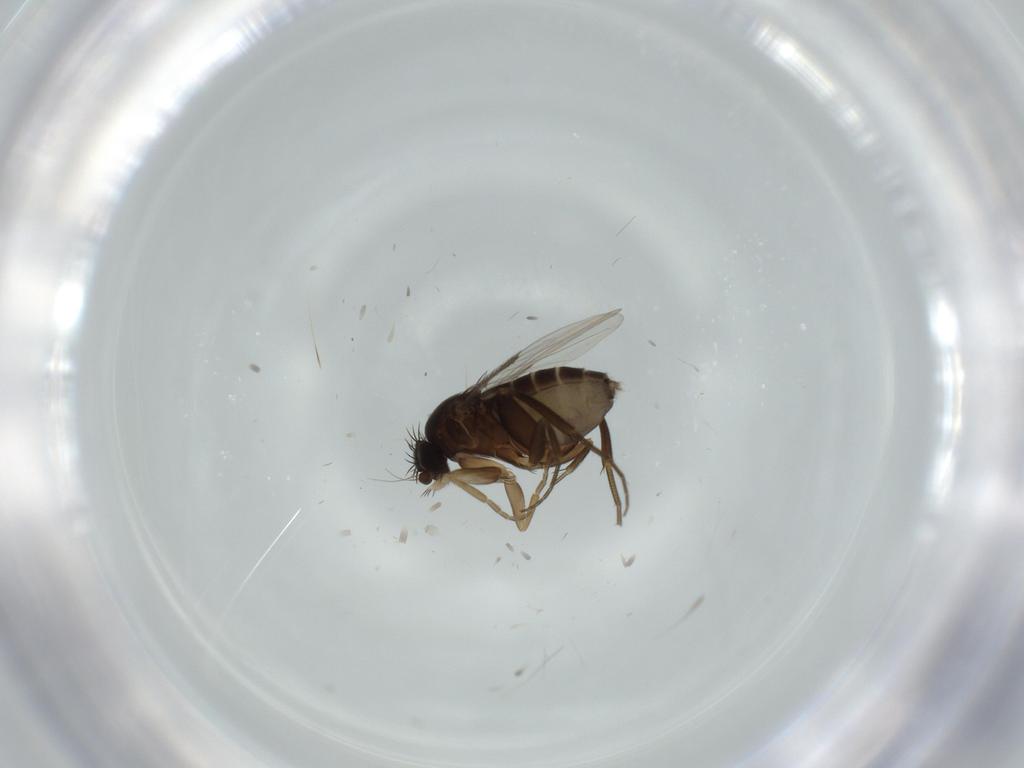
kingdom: Animalia
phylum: Arthropoda
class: Insecta
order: Diptera
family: Phoridae
